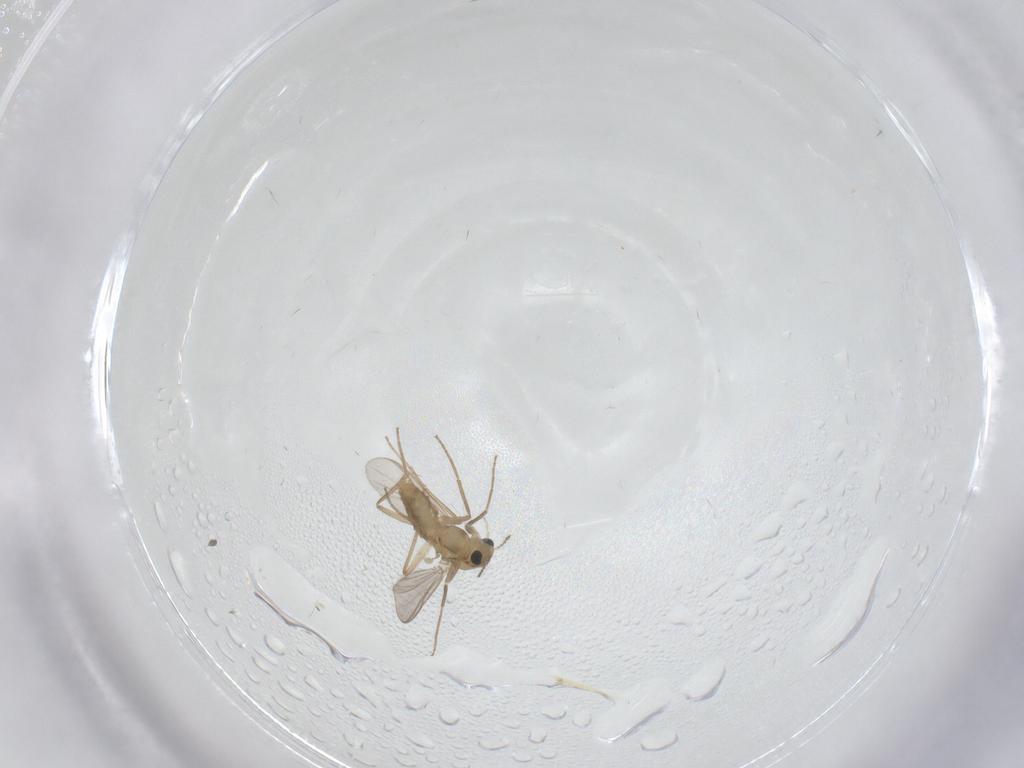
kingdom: Animalia
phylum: Arthropoda
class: Insecta
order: Diptera
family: Chironomidae
